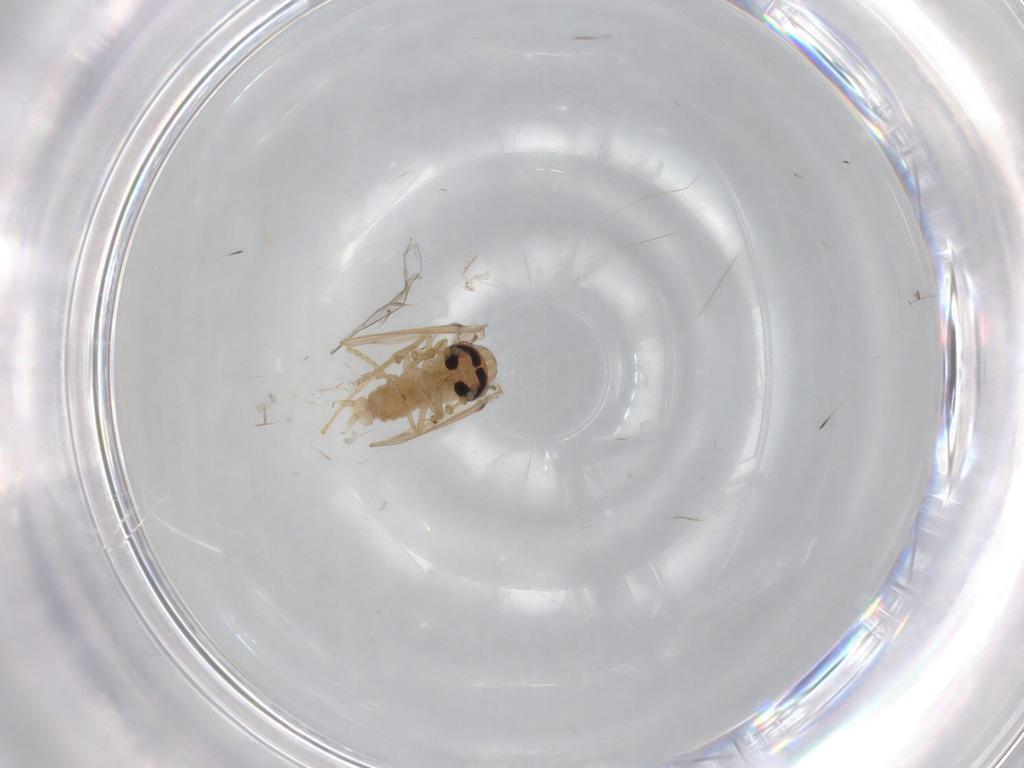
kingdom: Animalia
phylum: Arthropoda
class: Insecta
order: Diptera
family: Psychodidae
